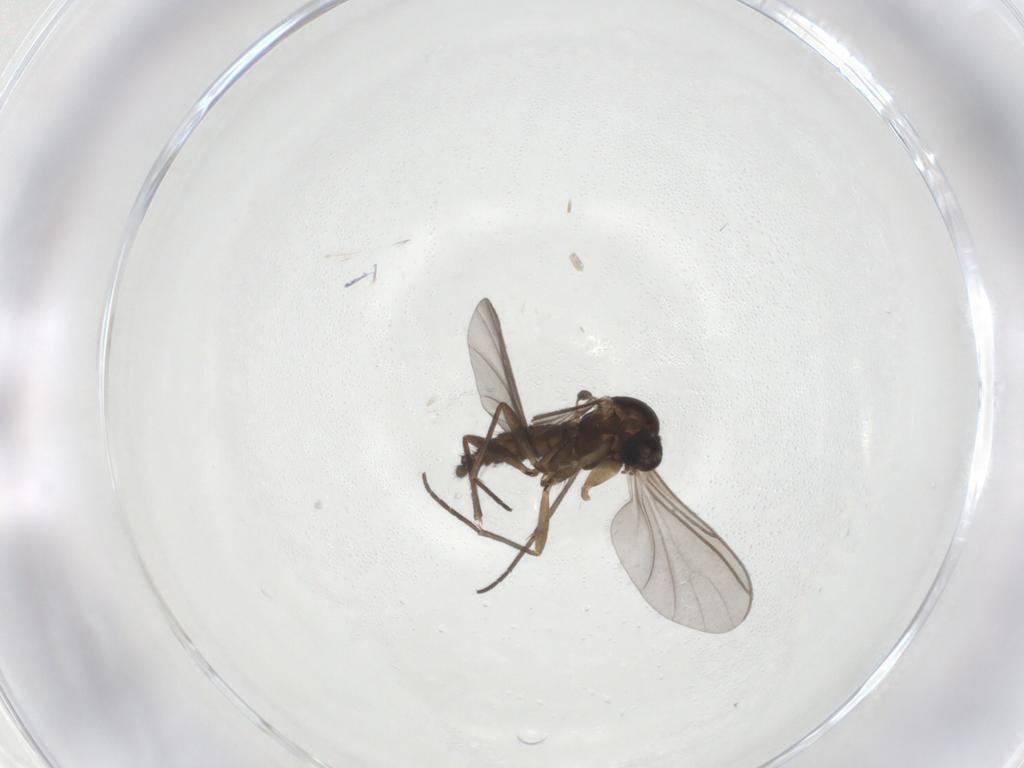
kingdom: Animalia
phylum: Arthropoda
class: Insecta
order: Diptera
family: Sciaridae
